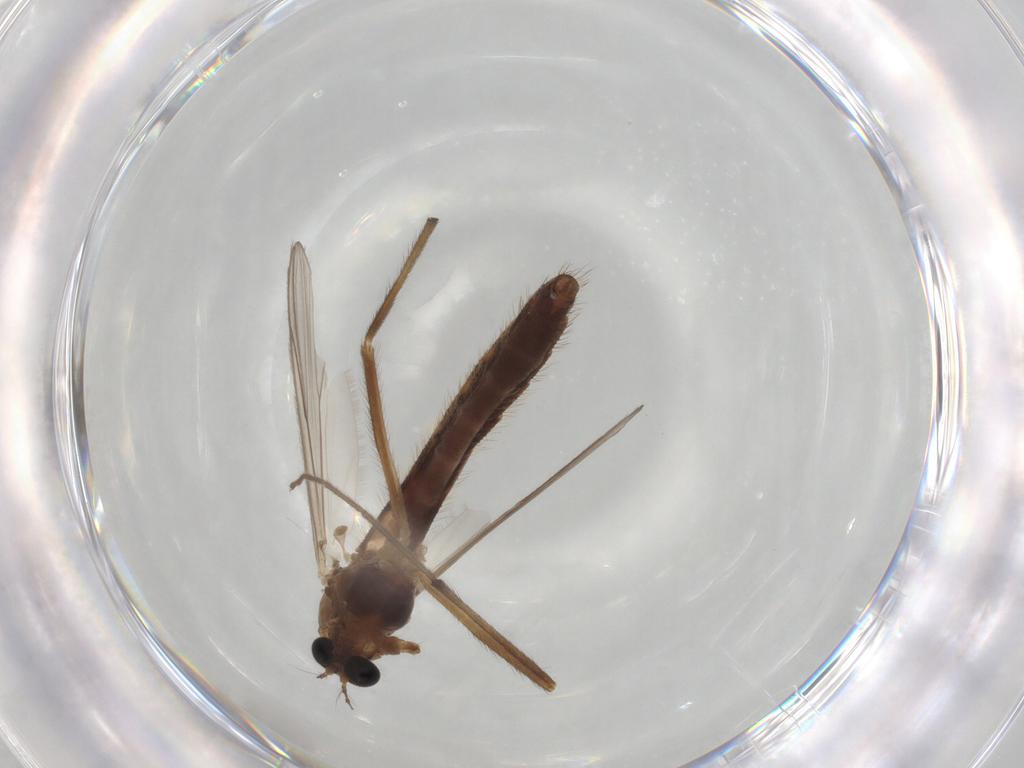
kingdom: Animalia
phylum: Arthropoda
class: Insecta
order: Diptera
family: Chironomidae
